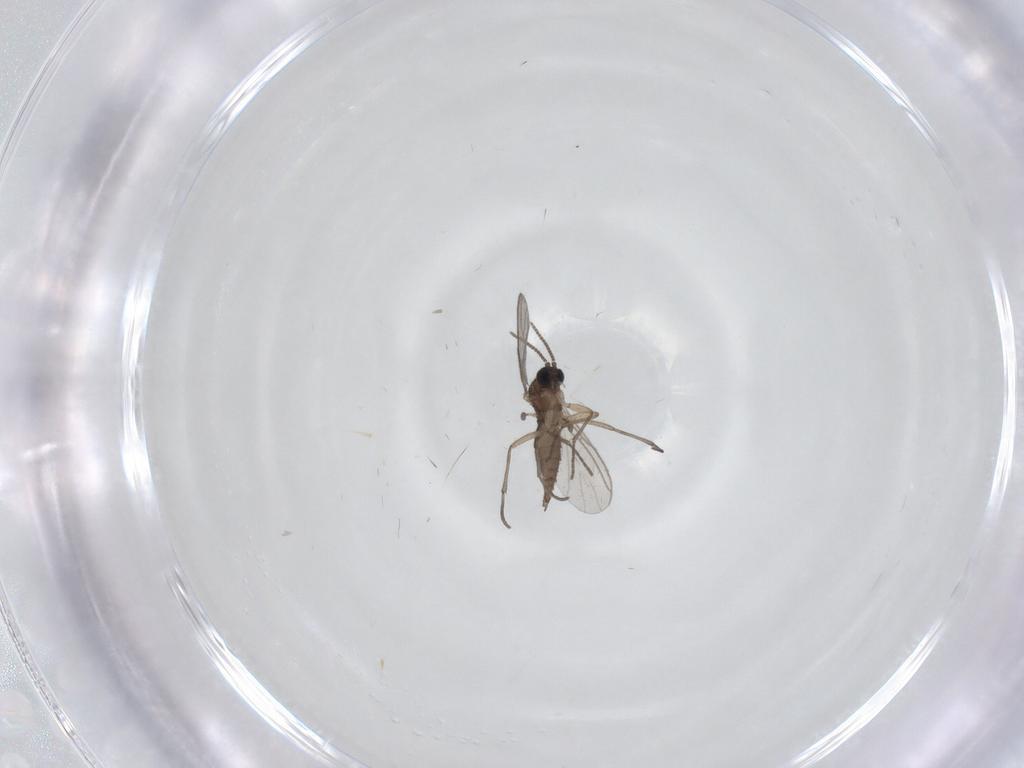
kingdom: Animalia
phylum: Arthropoda
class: Insecta
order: Diptera
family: Sciaridae
